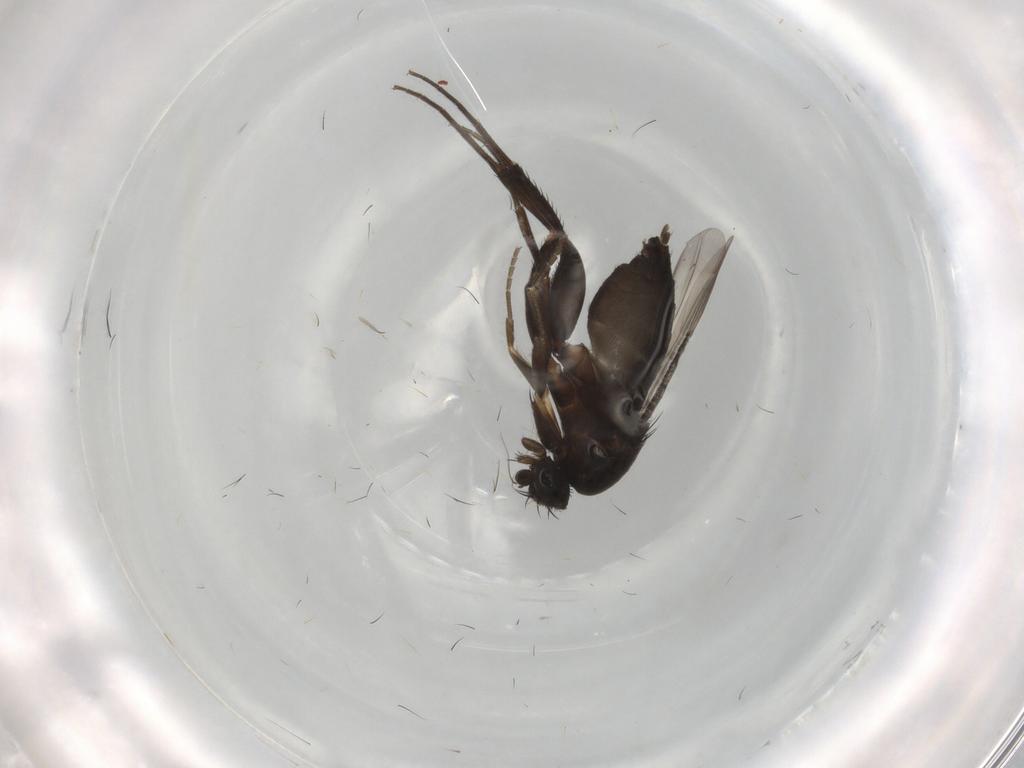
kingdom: Animalia
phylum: Arthropoda
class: Insecta
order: Diptera
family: Phoridae
